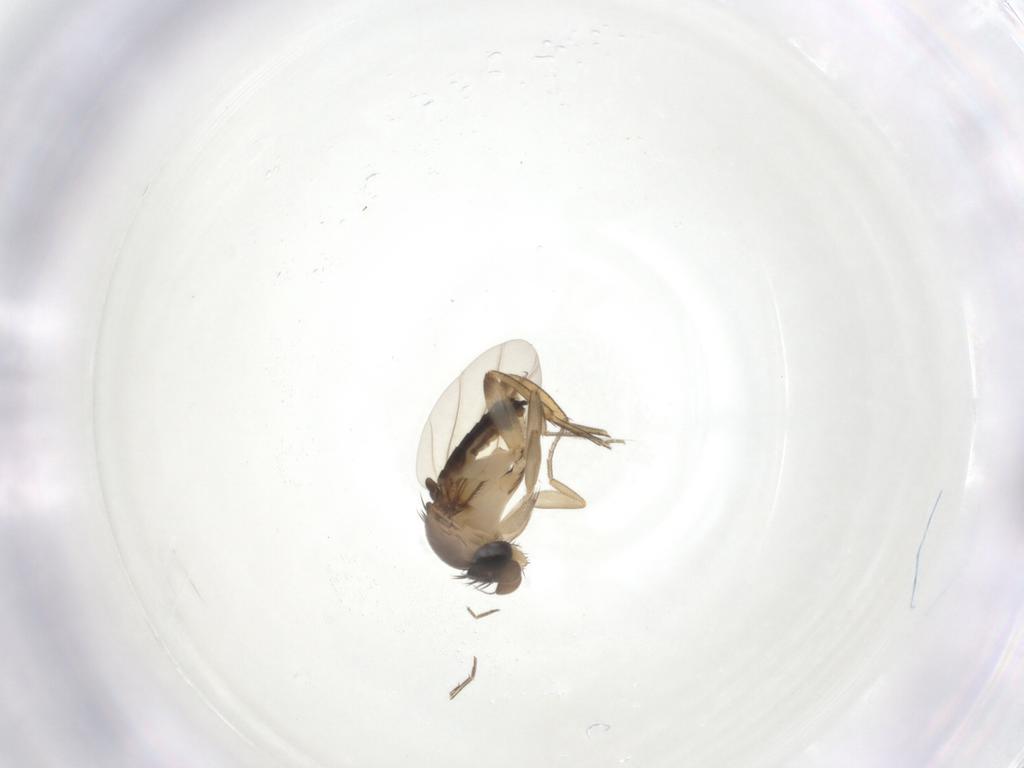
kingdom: Animalia
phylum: Arthropoda
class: Insecta
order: Diptera
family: Phoridae
